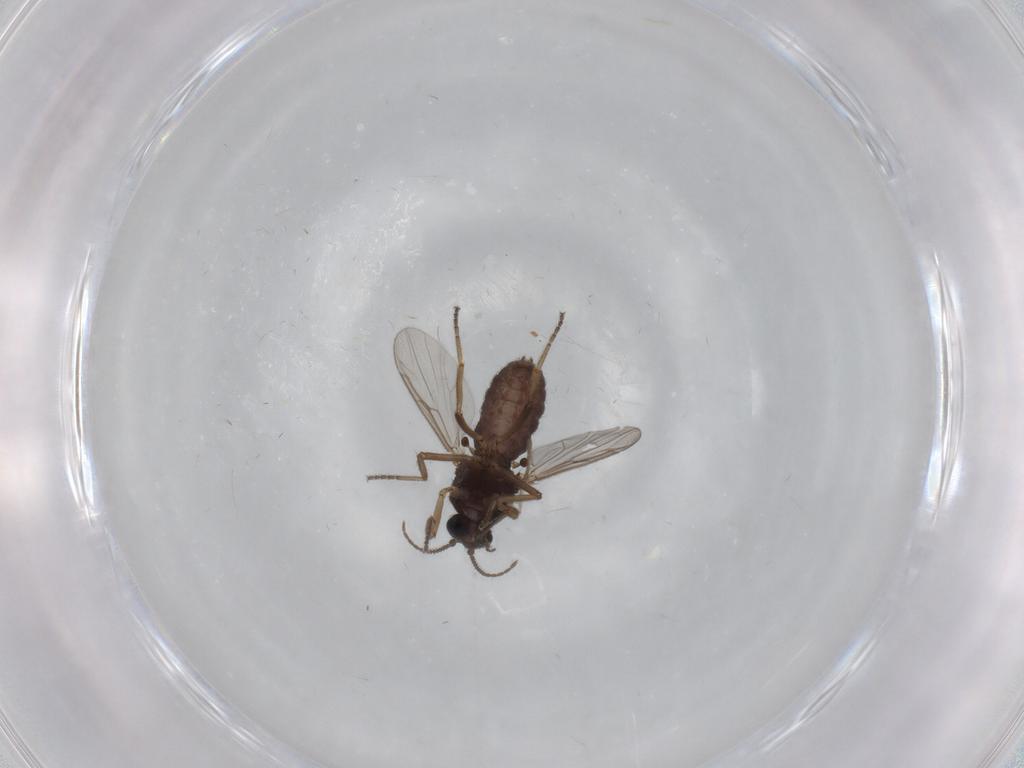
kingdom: Animalia
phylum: Arthropoda
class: Insecta
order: Diptera
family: Ceratopogonidae
